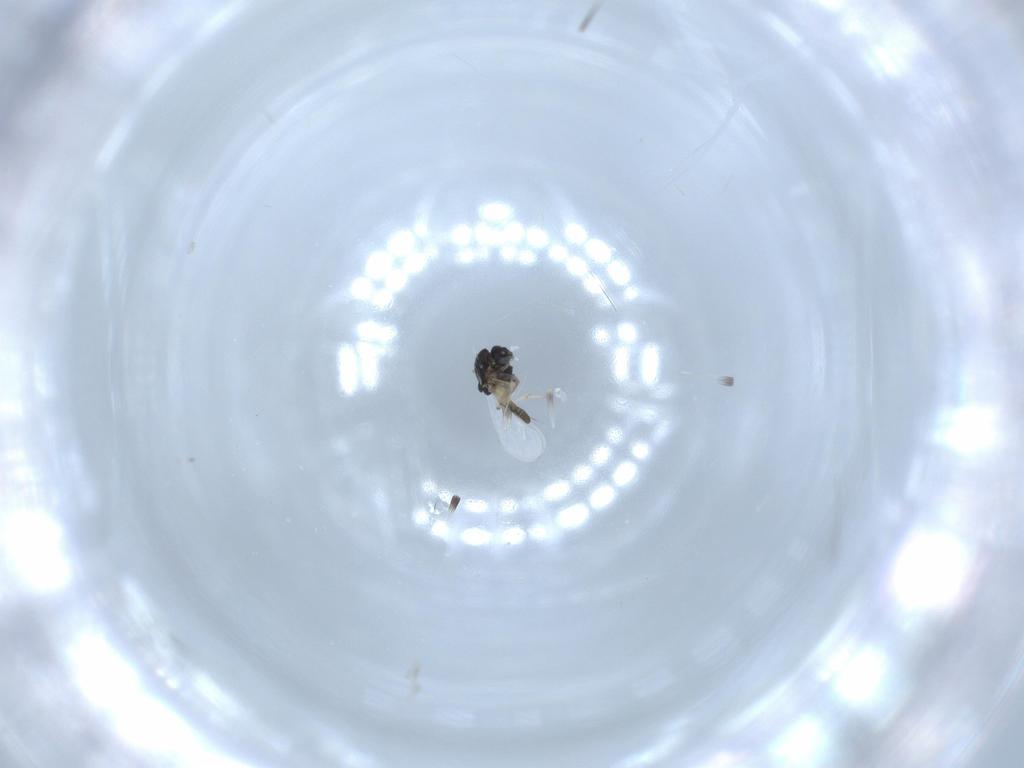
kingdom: Animalia
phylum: Arthropoda
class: Insecta
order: Diptera
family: Chironomidae
